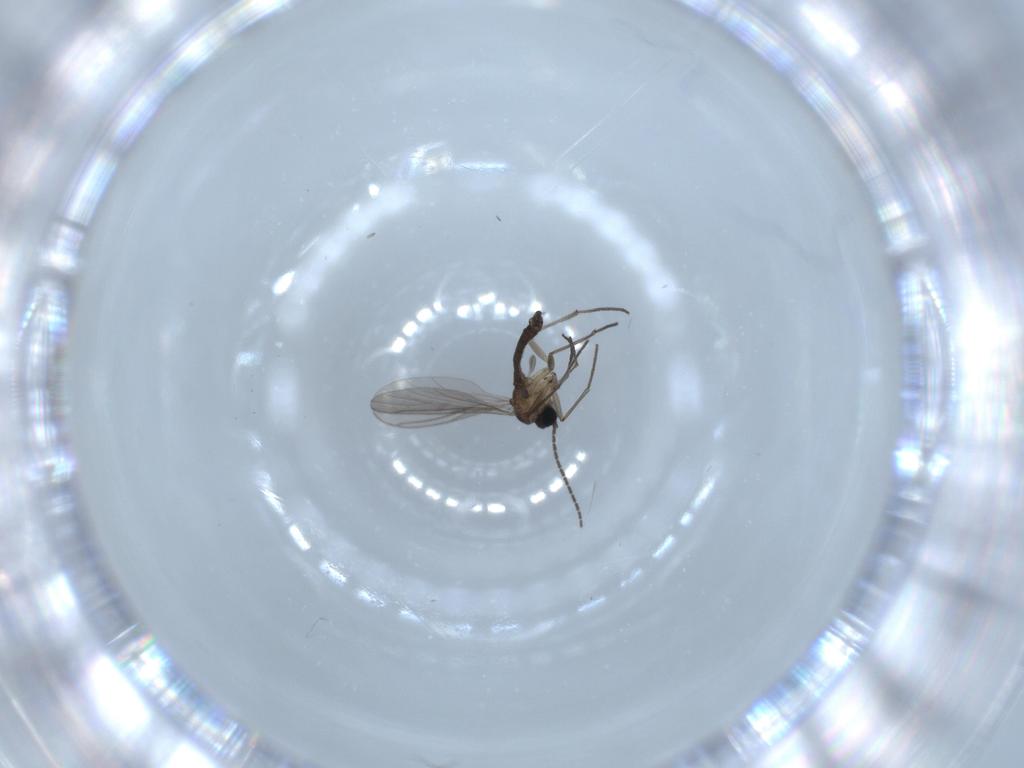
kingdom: Animalia
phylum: Arthropoda
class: Insecta
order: Diptera
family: Sciaridae
